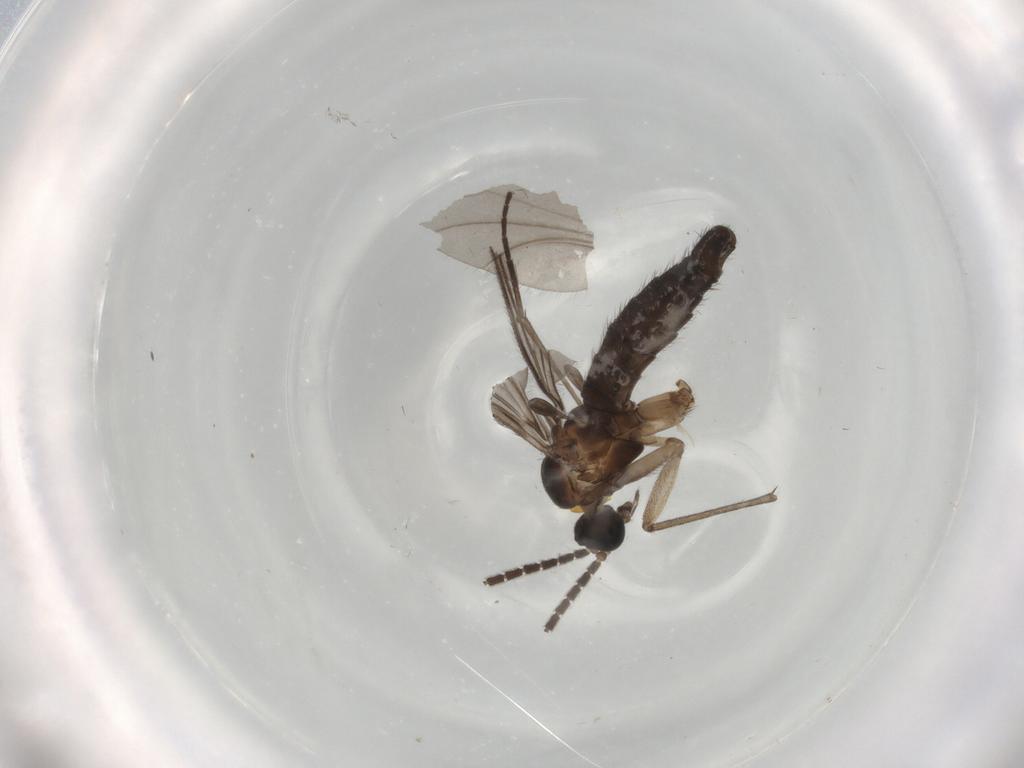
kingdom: Animalia
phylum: Arthropoda
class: Insecta
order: Diptera
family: Sciaridae
